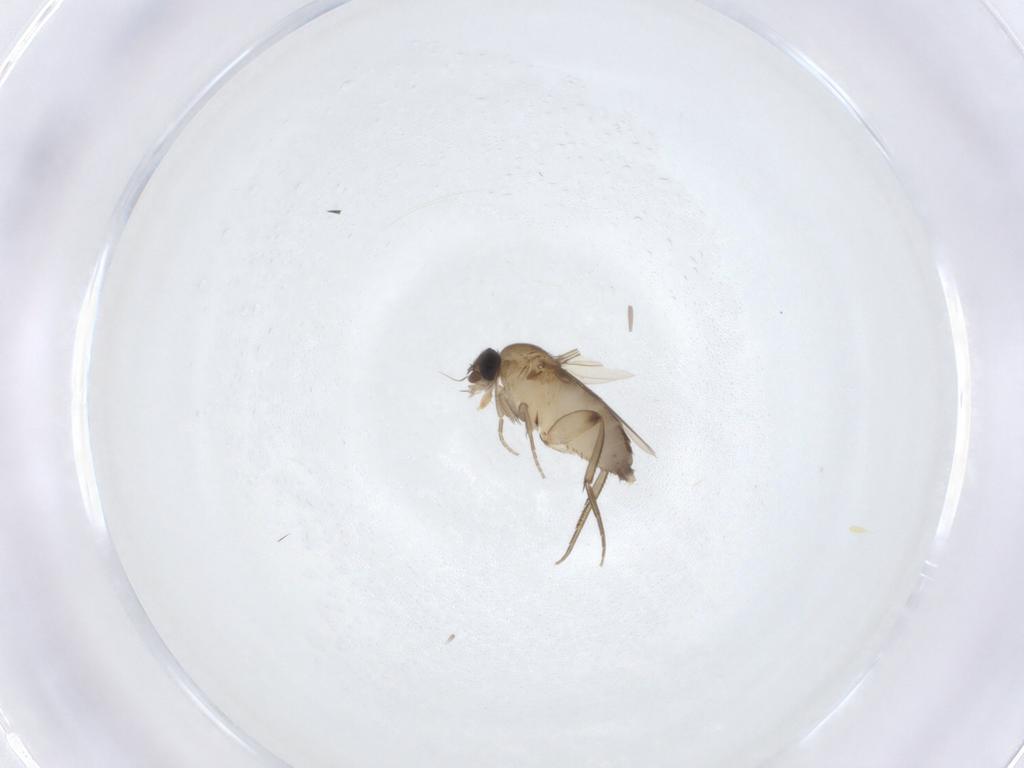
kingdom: Animalia
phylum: Arthropoda
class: Insecta
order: Diptera
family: Phoridae
